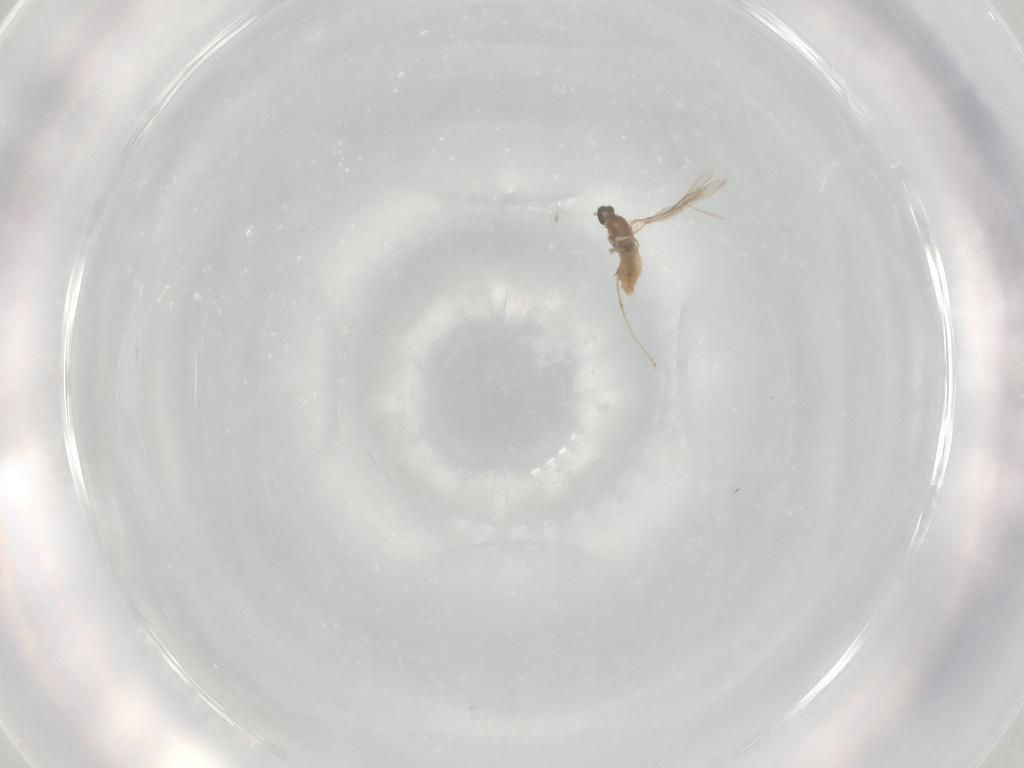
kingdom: Animalia
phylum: Arthropoda
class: Insecta
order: Diptera
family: Cecidomyiidae
